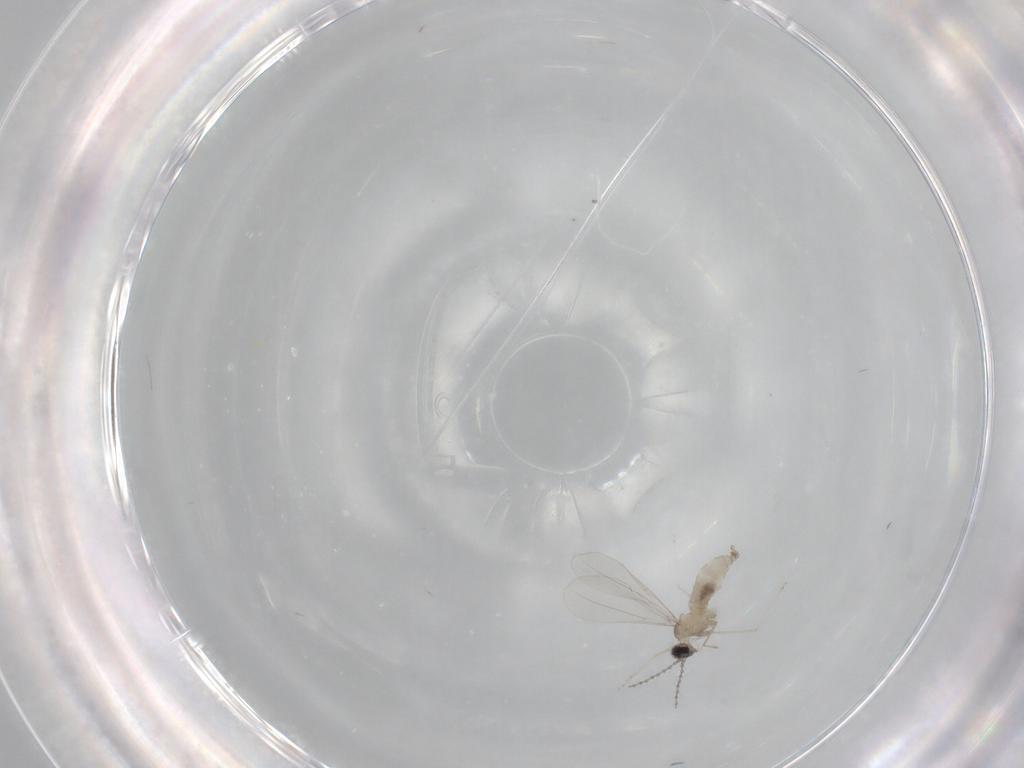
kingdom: Animalia
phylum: Arthropoda
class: Insecta
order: Diptera
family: Cecidomyiidae
